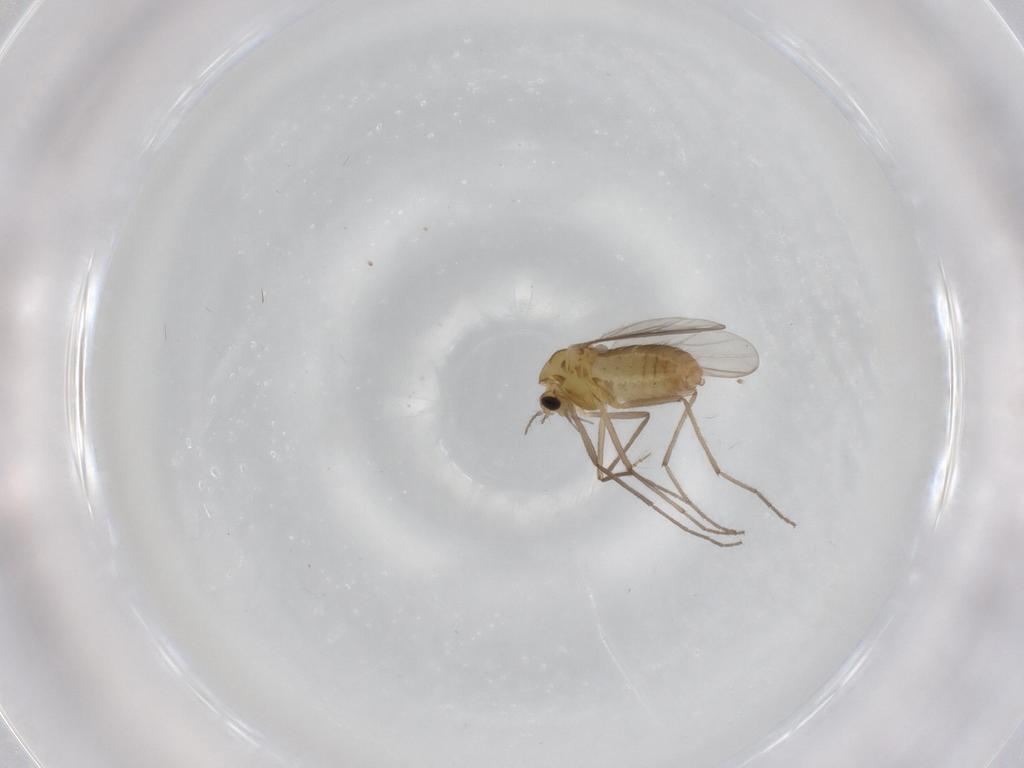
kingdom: Animalia
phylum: Arthropoda
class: Insecta
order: Diptera
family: Chironomidae
